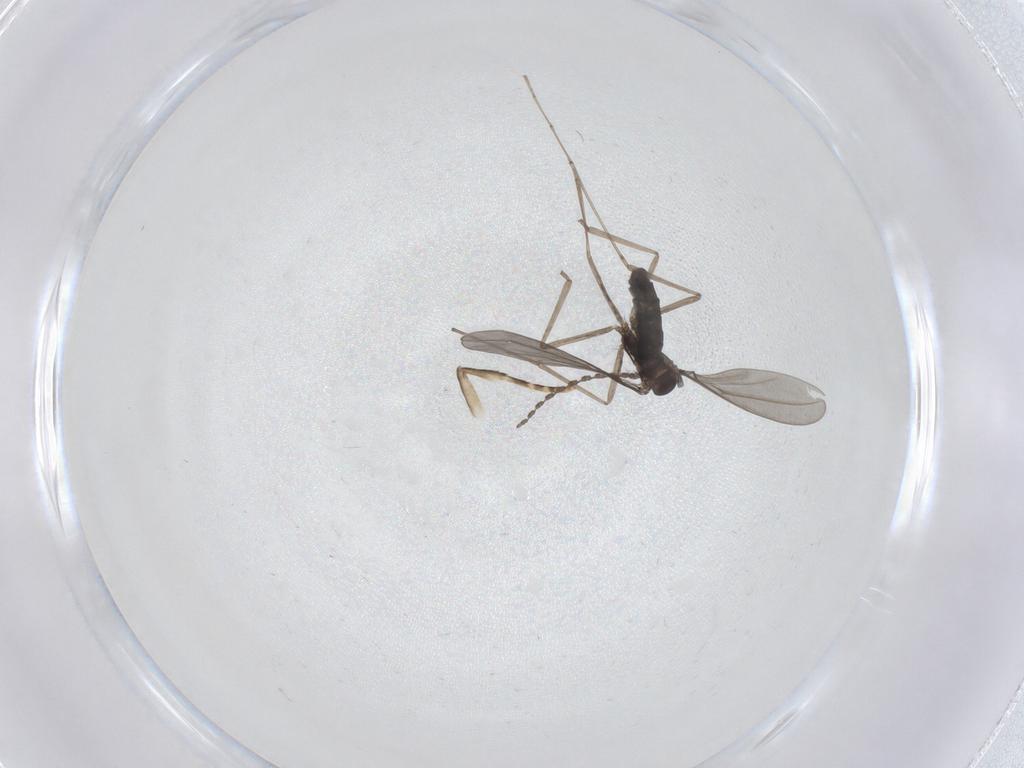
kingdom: Animalia
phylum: Arthropoda
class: Insecta
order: Diptera
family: Cecidomyiidae
